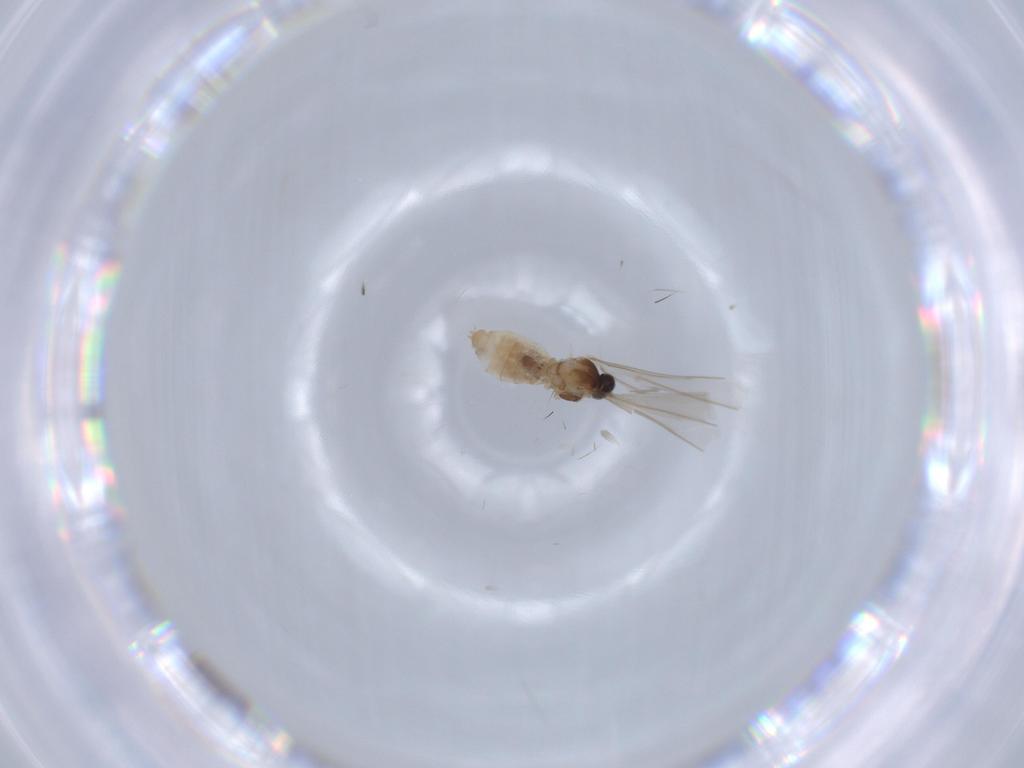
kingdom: Animalia
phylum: Arthropoda
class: Insecta
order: Diptera
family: Cecidomyiidae
